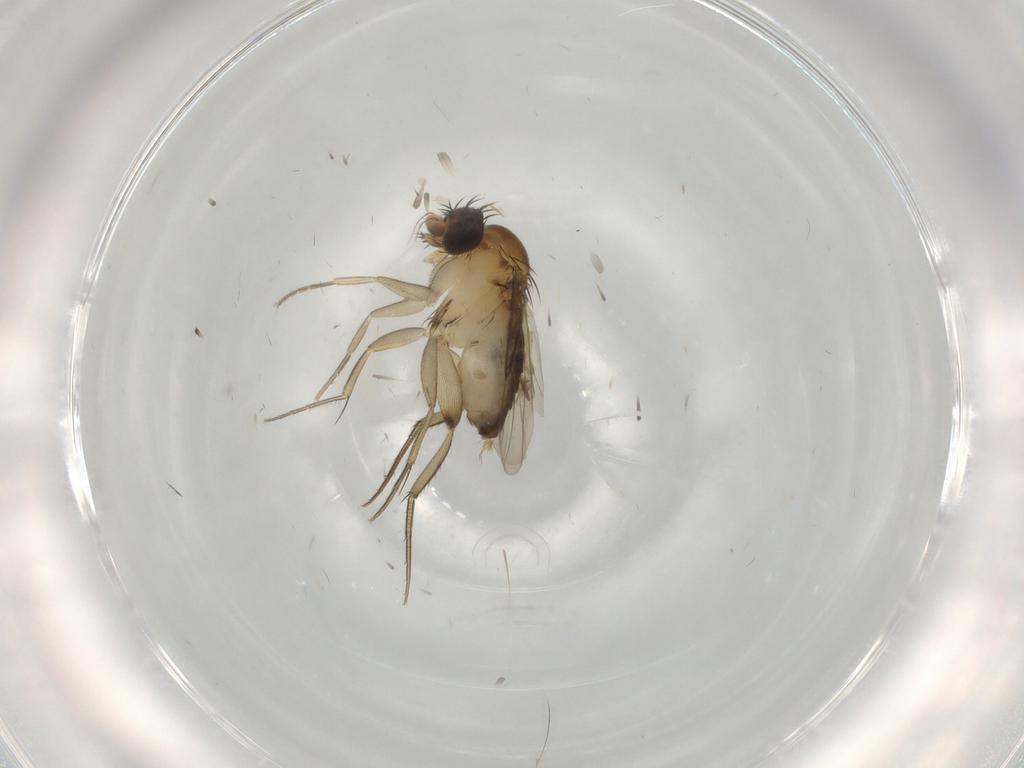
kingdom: Animalia
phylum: Arthropoda
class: Insecta
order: Diptera
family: Phoridae
